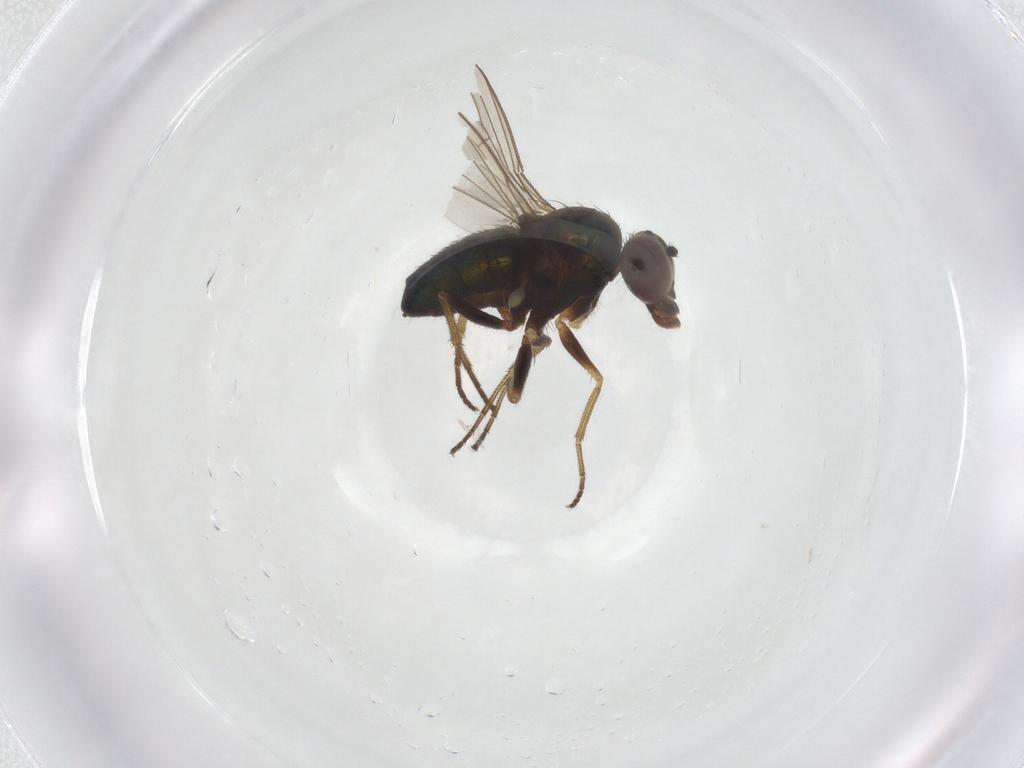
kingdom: Animalia
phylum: Arthropoda
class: Insecta
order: Diptera
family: Dolichopodidae
